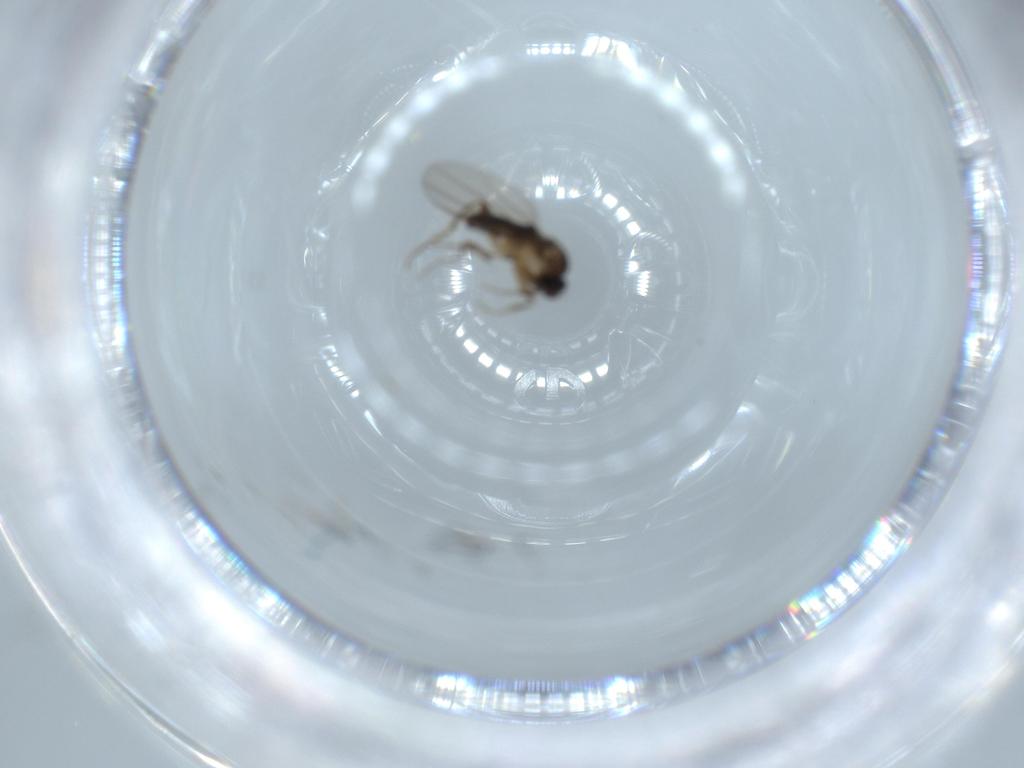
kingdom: Animalia
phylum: Arthropoda
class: Insecta
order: Diptera
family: Phoridae
